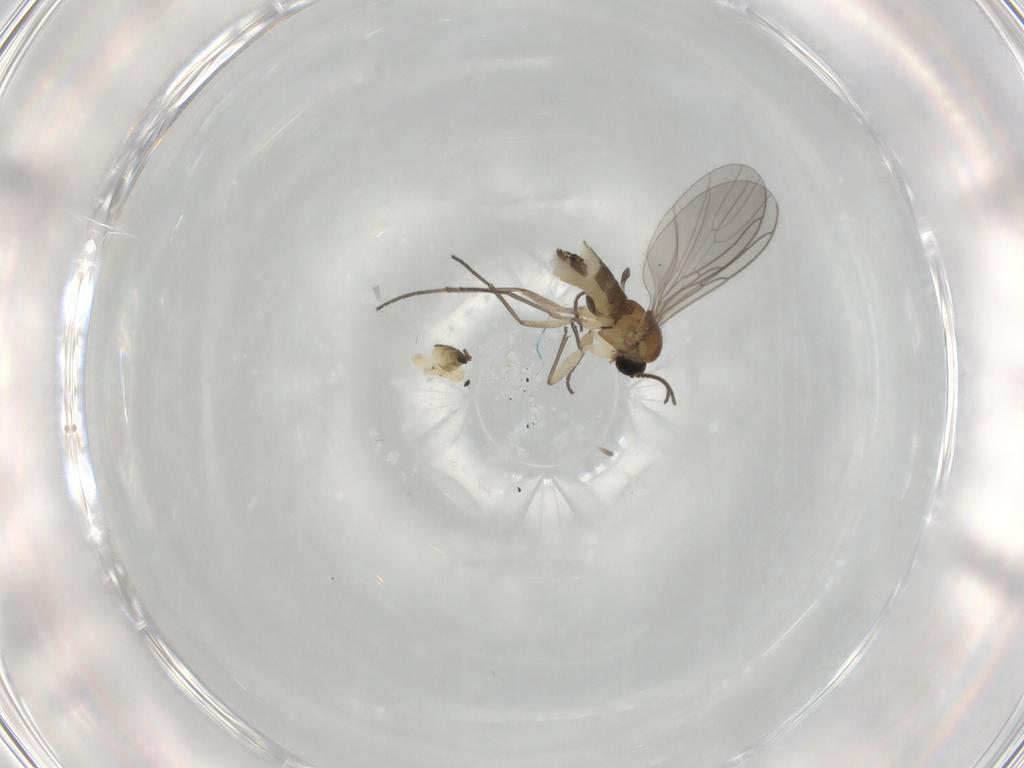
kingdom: Animalia
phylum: Arthropoda
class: Insecta
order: Diptera
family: Sciaridae
